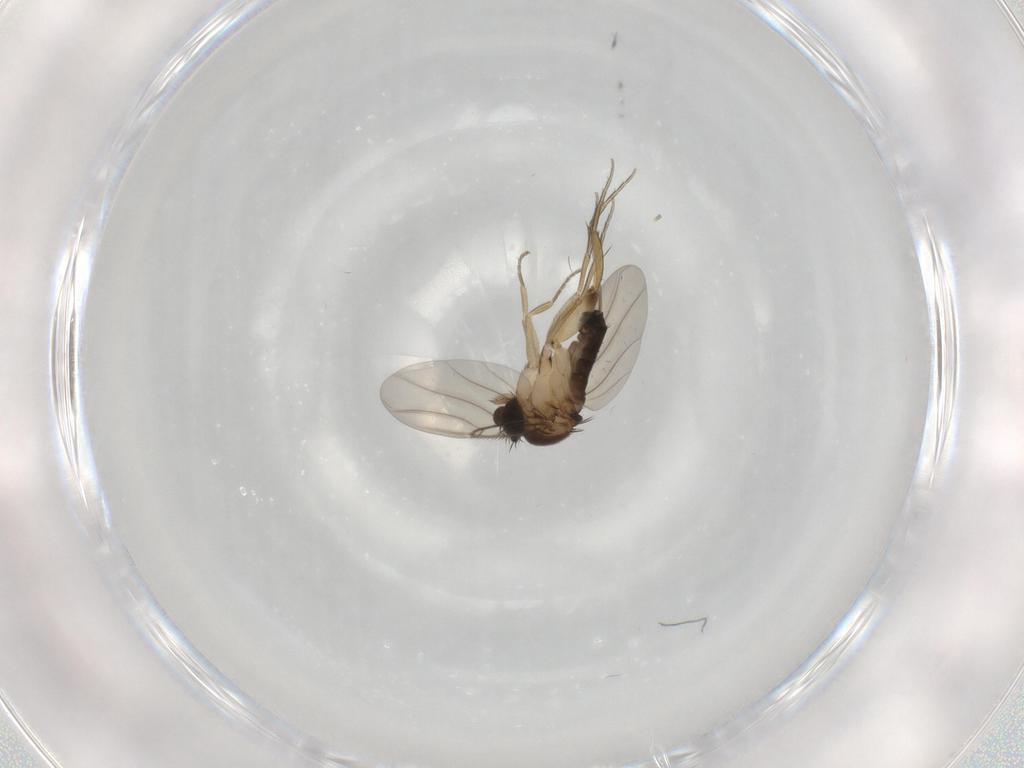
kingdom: Animalia
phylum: Arthropoda
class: Insecta
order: Diptera
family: Phoridae
